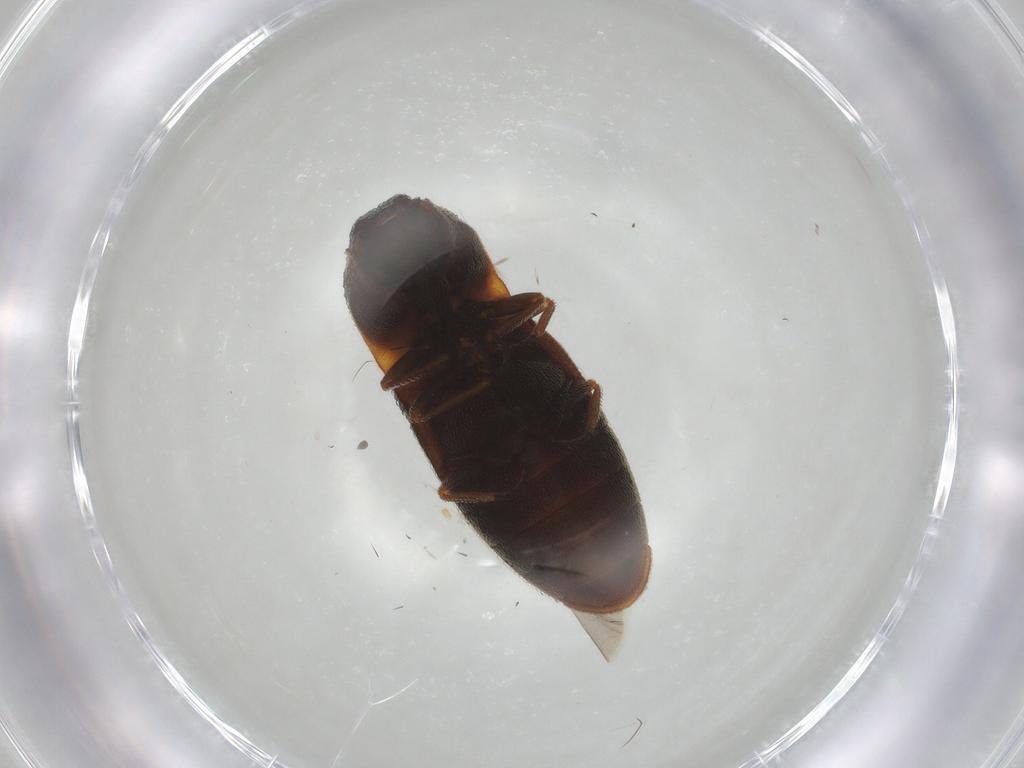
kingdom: Animalia
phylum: Arthropoda
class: Insecta
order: Coleoptera
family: Elateridae
